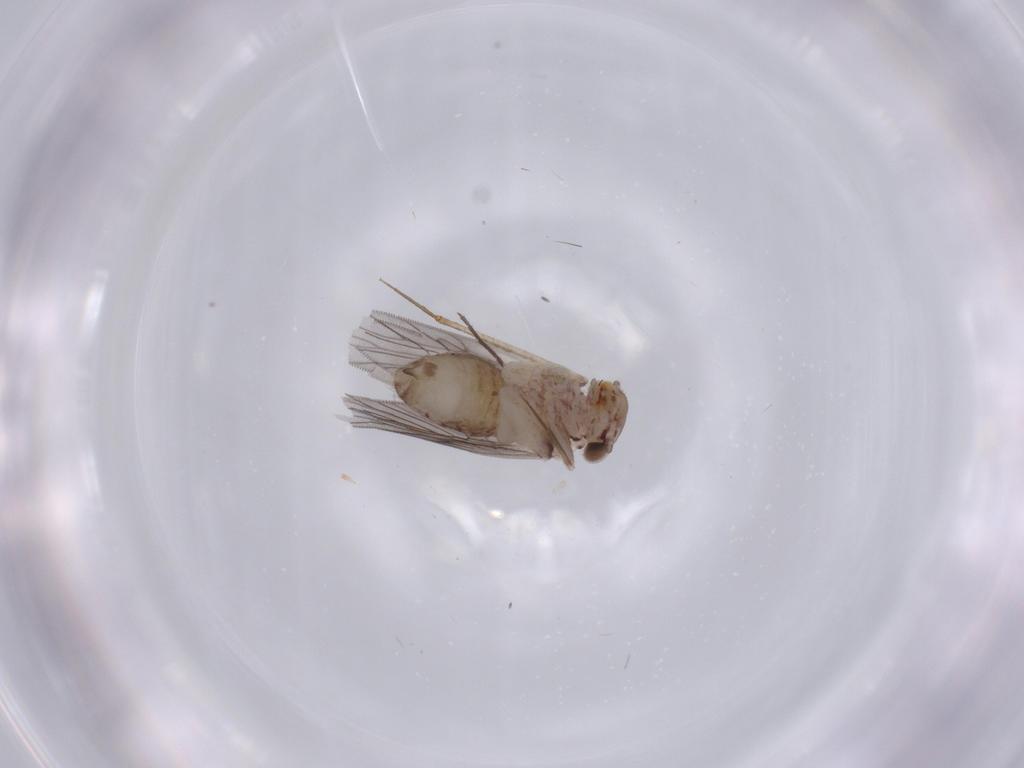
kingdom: Animalia
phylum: Arthropoda
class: Insecta
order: Psocodea
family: Lepidopsocidae
